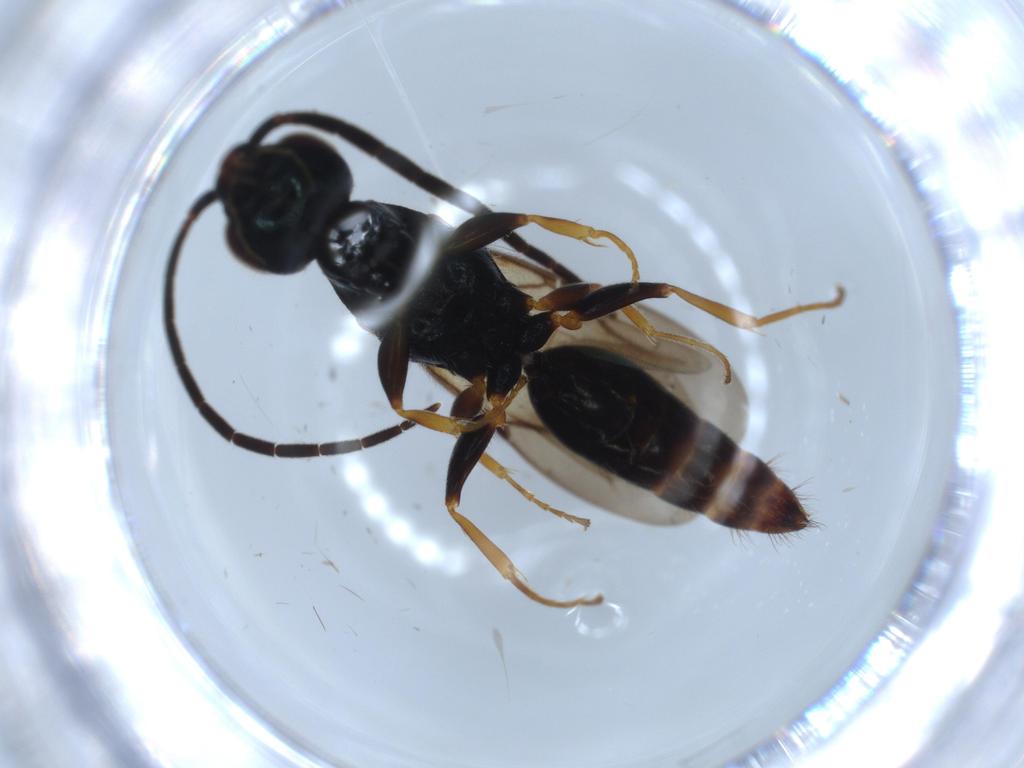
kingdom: Animalia
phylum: Arthropoda
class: Insecta
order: Hymenoptera
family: Bethylidae
